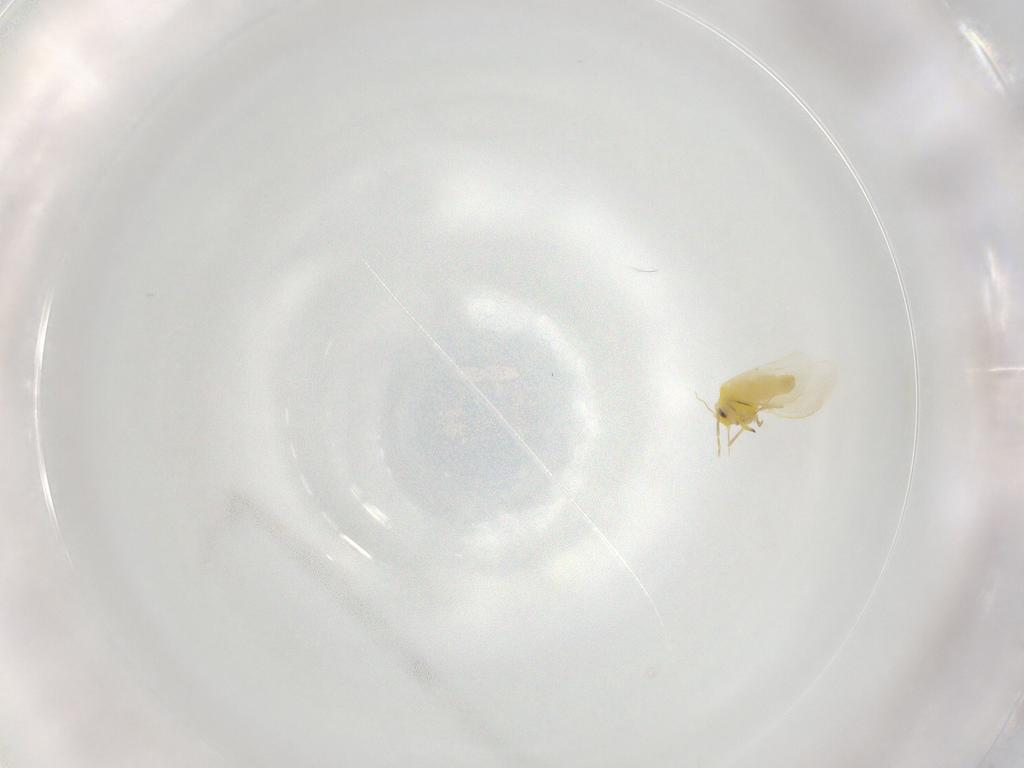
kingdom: Animalia
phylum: Arthropoda
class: Insecta
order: Hemiptera
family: Aleyrodidae
